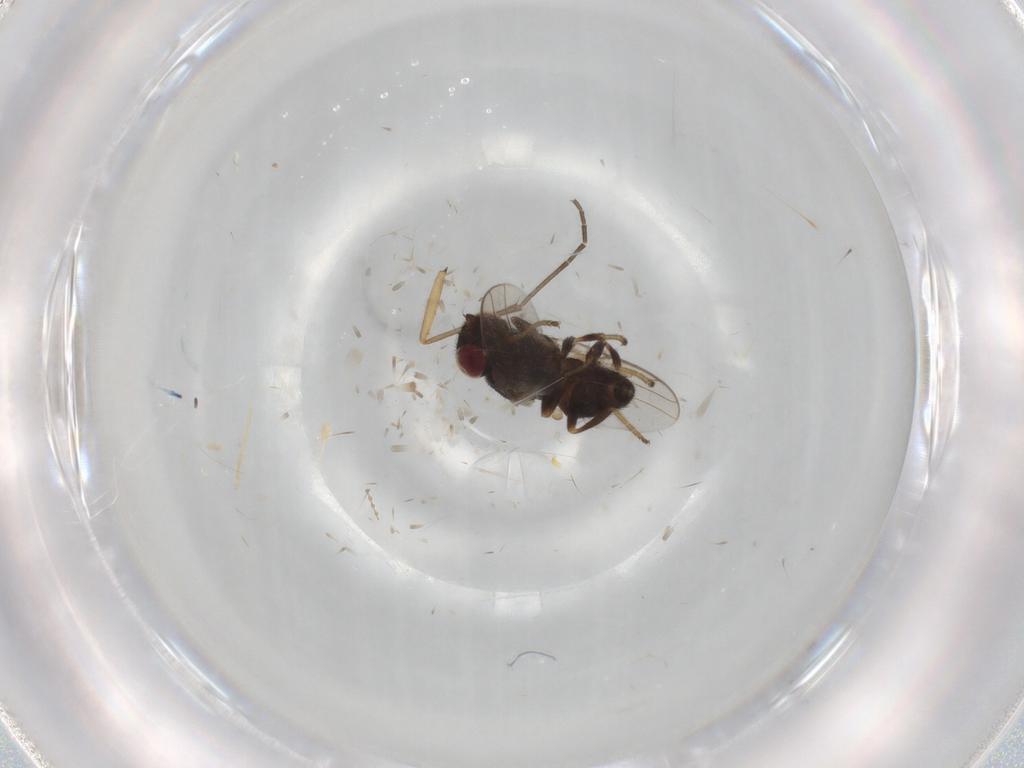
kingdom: Animalia
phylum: Arthropoda
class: Insecta
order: Diptera
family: Chloropidae
